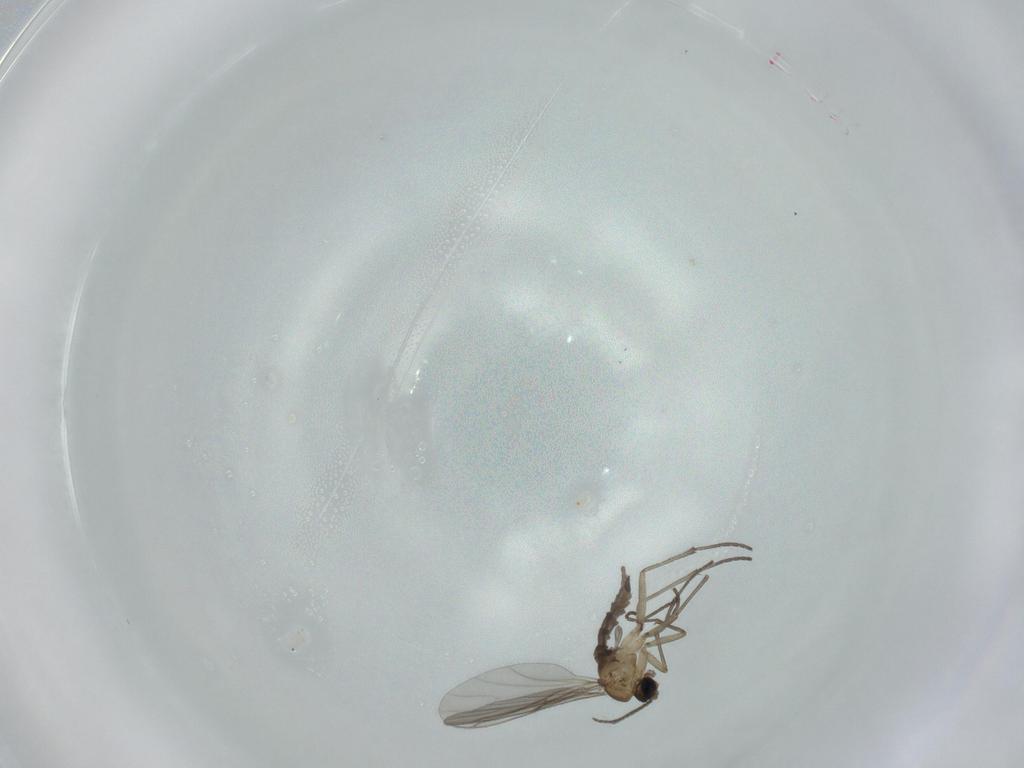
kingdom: Animalia
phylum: Arthropoda
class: Insecta
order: Diptera
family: Sciaridae
